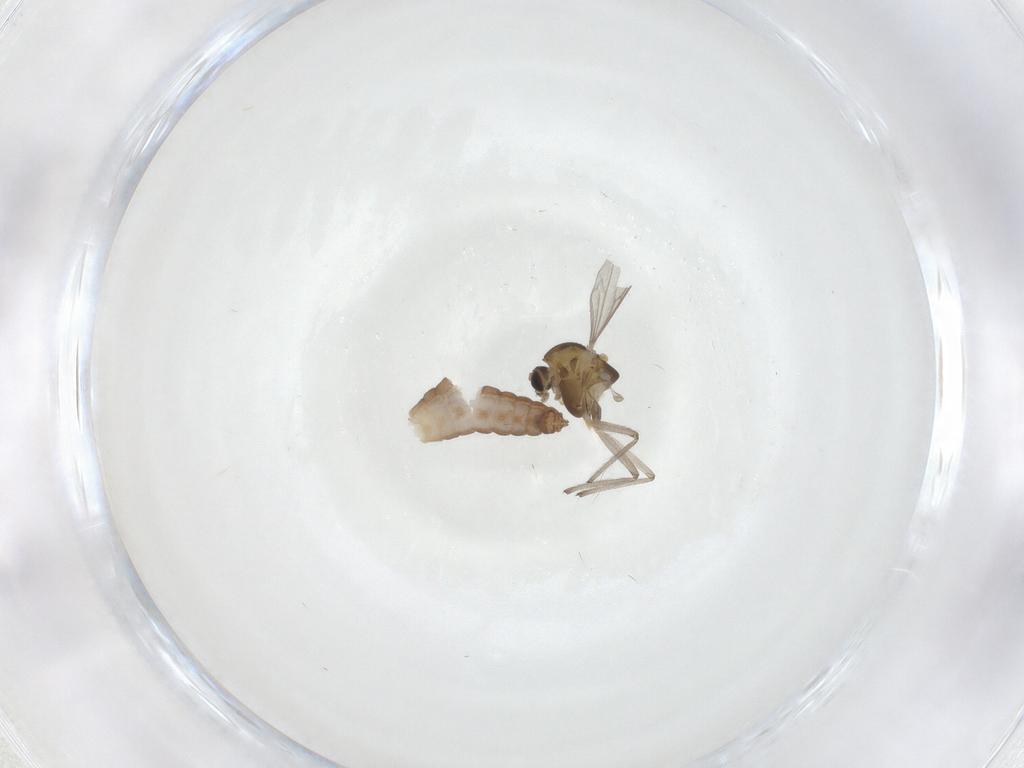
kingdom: Animalia
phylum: Arthropoda
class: Insecta
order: Diptera
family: Chironomidae
